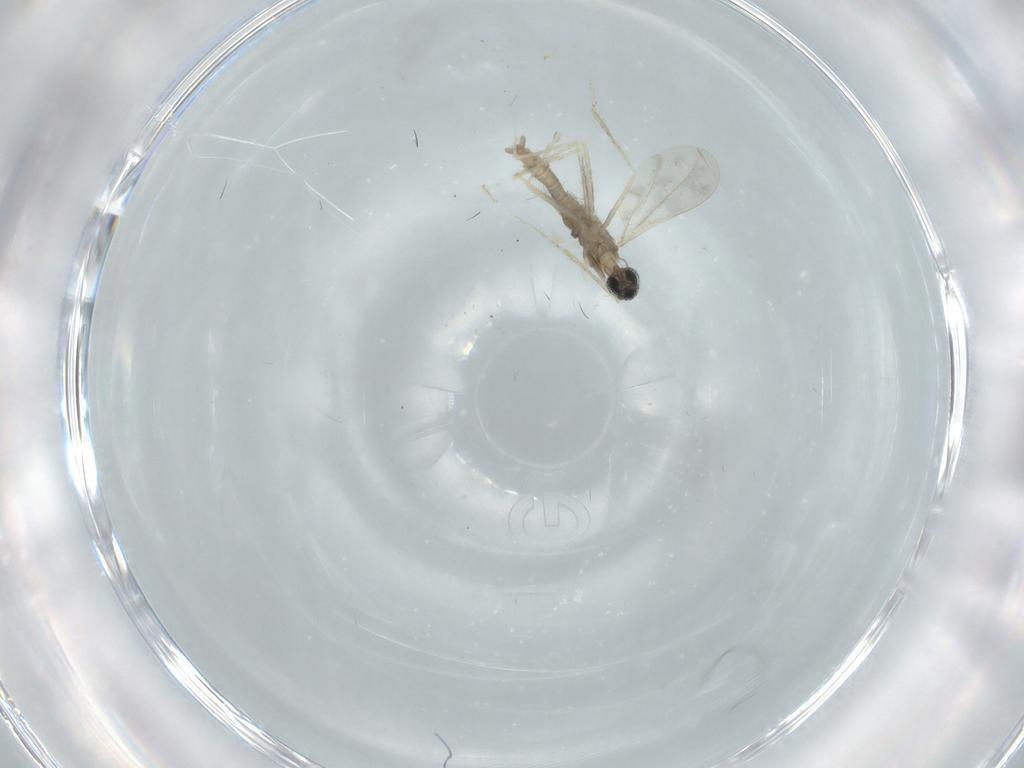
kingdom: Animalia
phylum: Arthropoda
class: Insecta
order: Diptera
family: Cecidomyiidae
